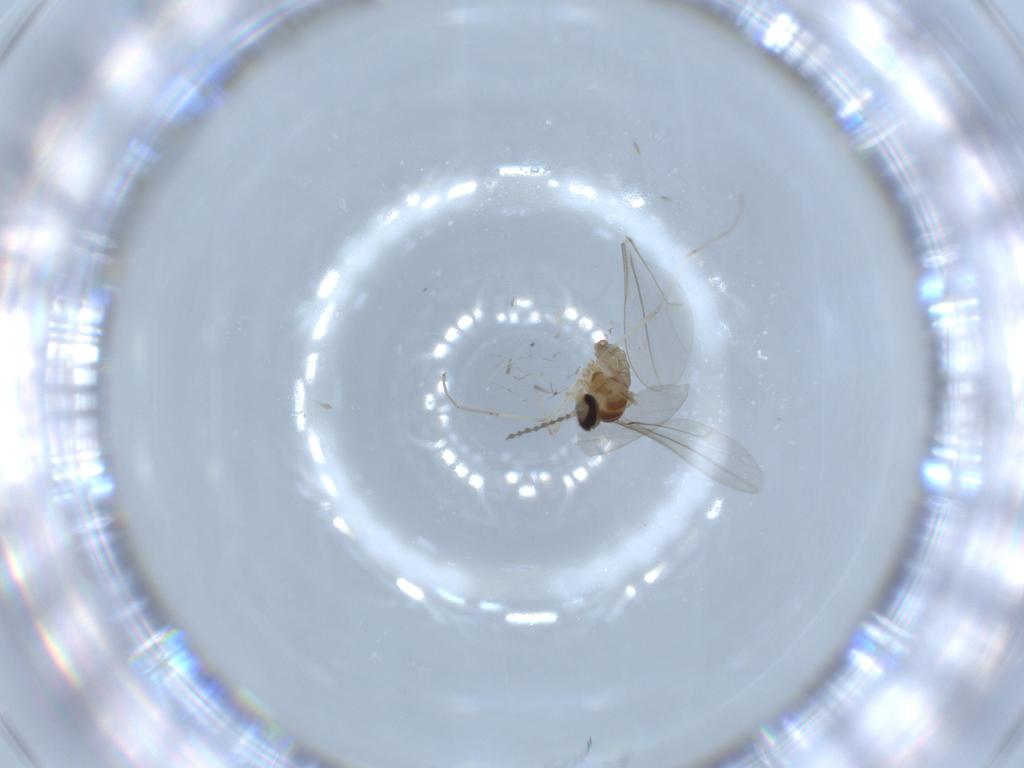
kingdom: Animalia
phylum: Arthropoda
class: Insecta
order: Diptera
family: Cecidomyiidae
